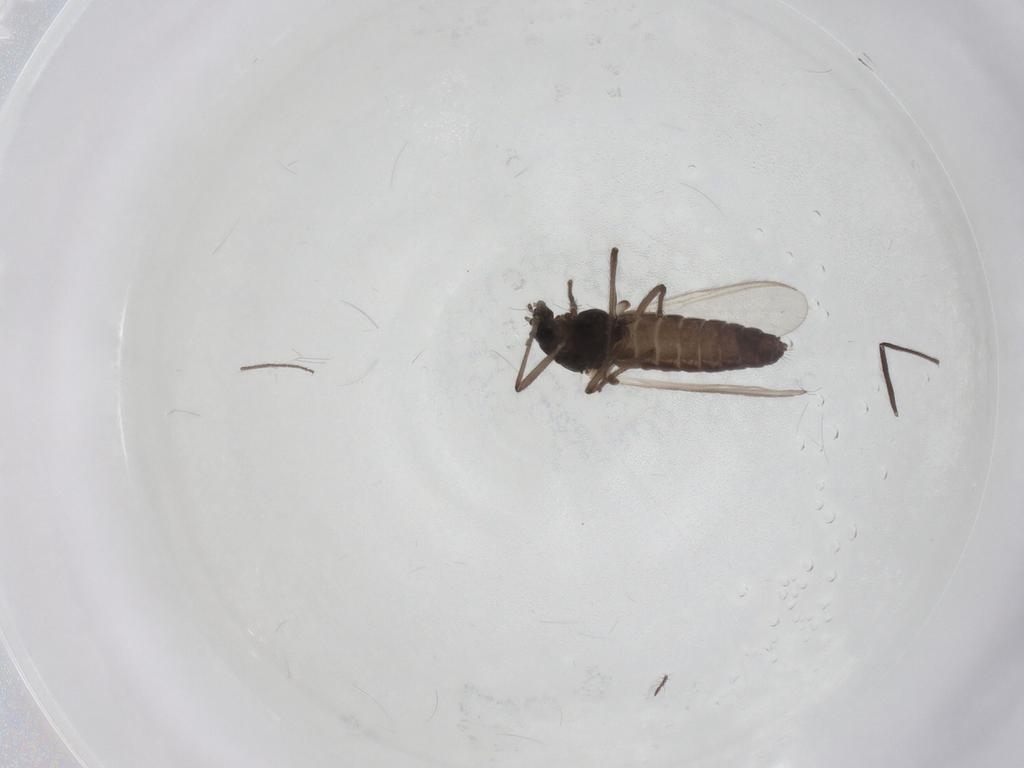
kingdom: Animalia
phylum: Arthropoda
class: Insecta
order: Diptera
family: Chironomidae
